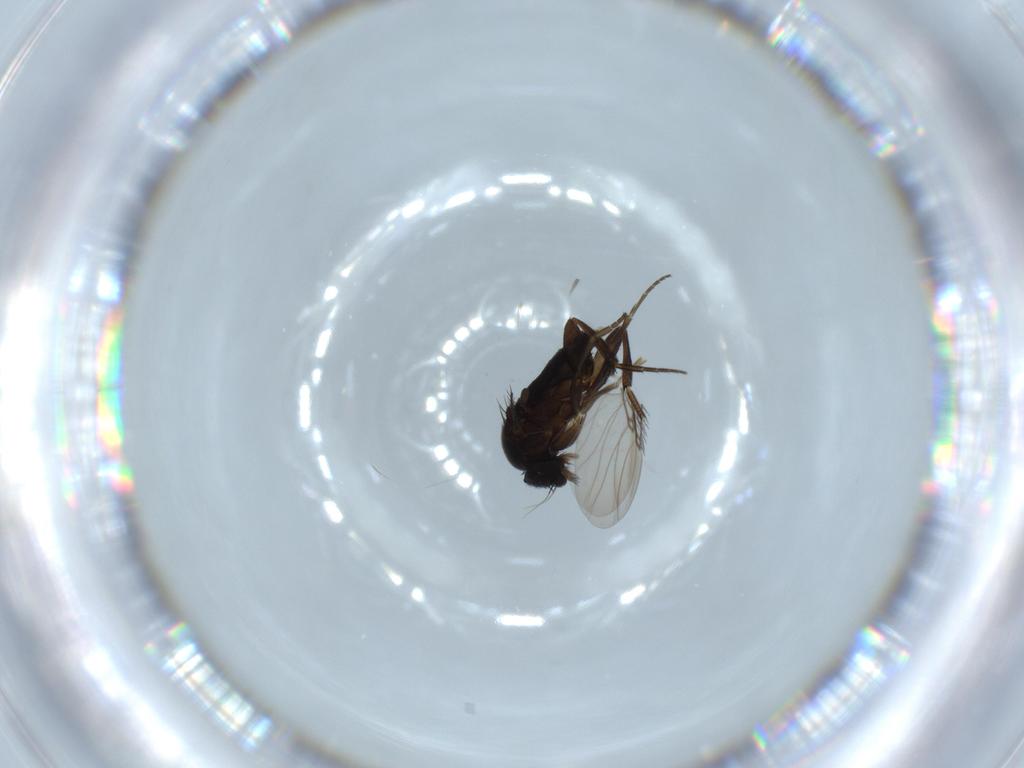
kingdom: Animalia
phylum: Arthropoda
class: Insecta
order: Diptera
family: Phoridae
